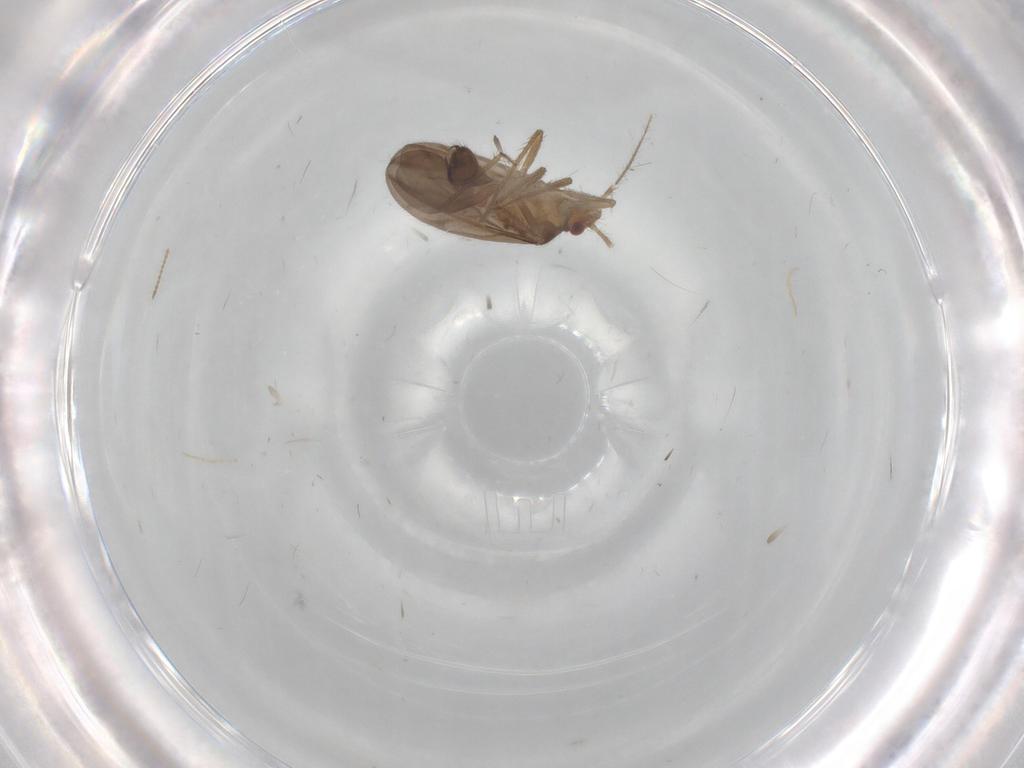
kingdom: Animalia
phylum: Arthropoda
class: Insecta
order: Hemiptera
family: Ceratocombidae
